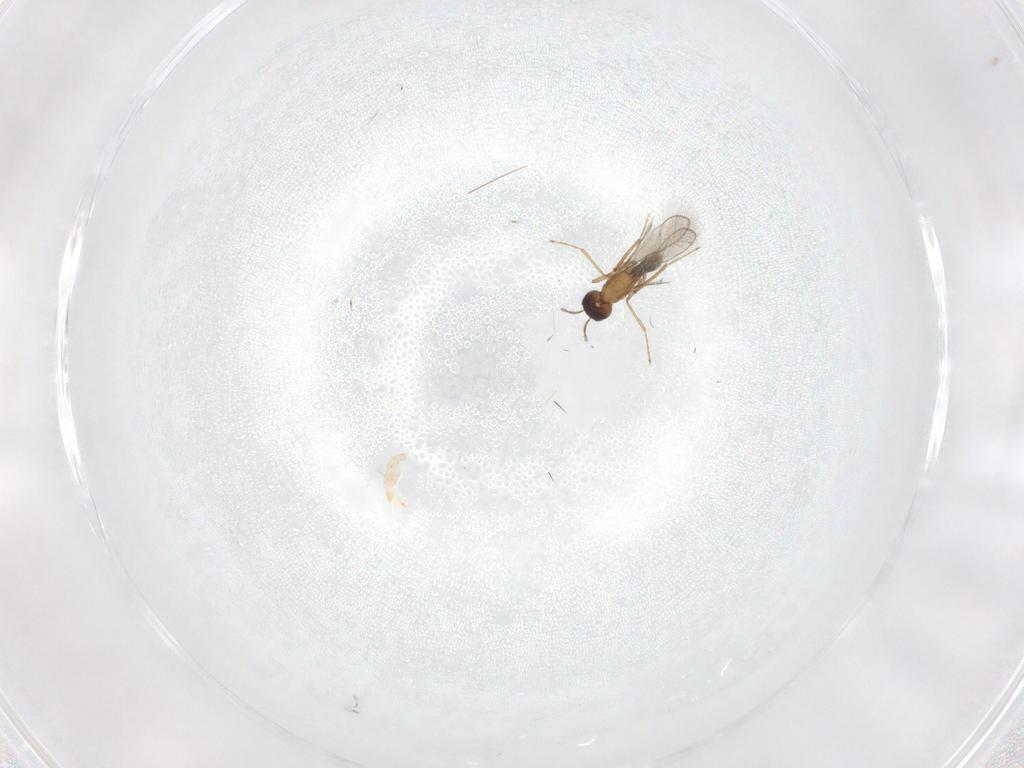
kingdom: Animalia
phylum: Arthropoda
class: Insecta
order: Hymenoptera
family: Mymaridae
